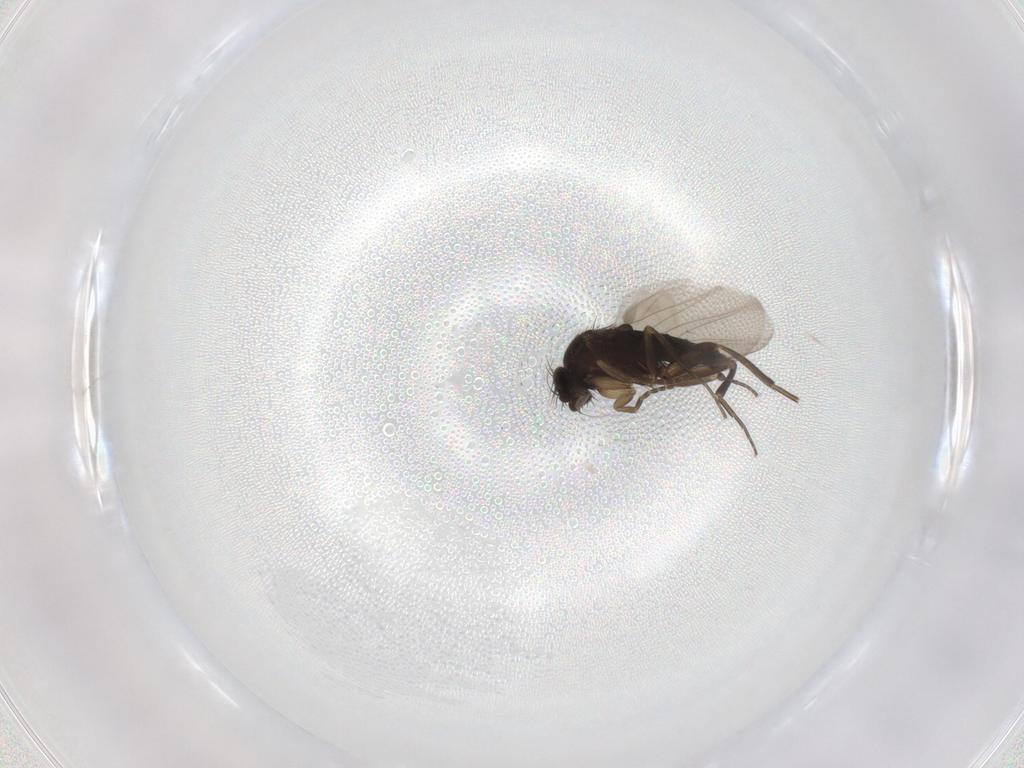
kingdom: Animalia
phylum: Arthropoda
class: Insecta
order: Diptera
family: Phoridae
